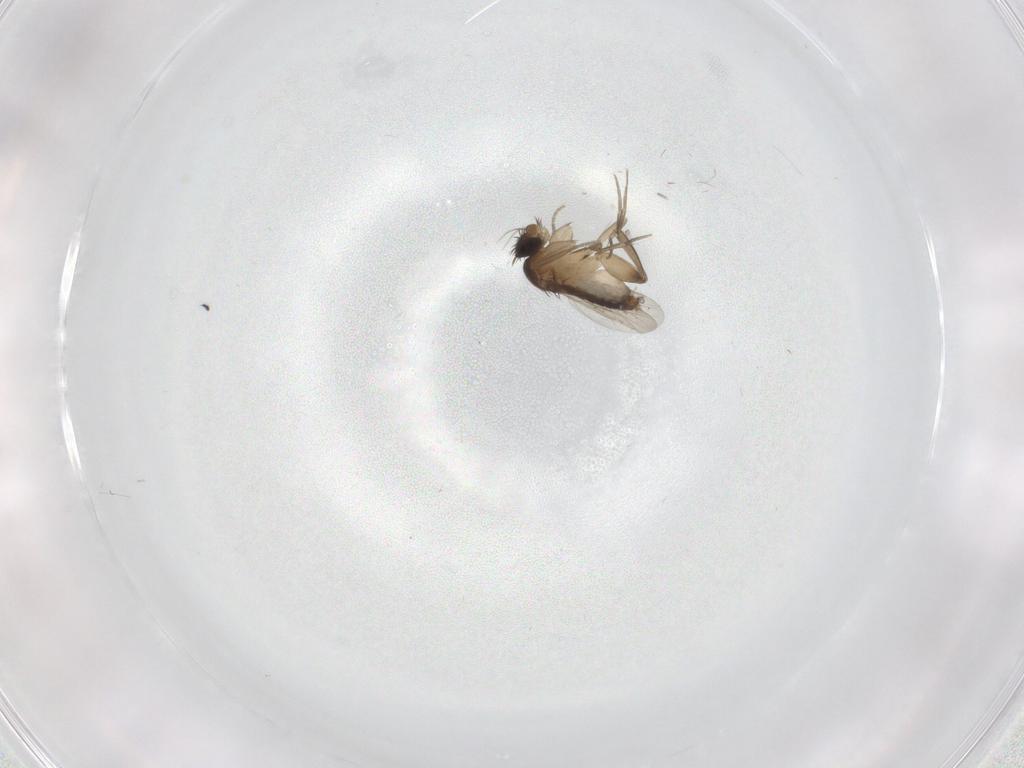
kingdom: Animalia
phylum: Arthropoda
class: Insecta
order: Diptera
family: Phoridae
